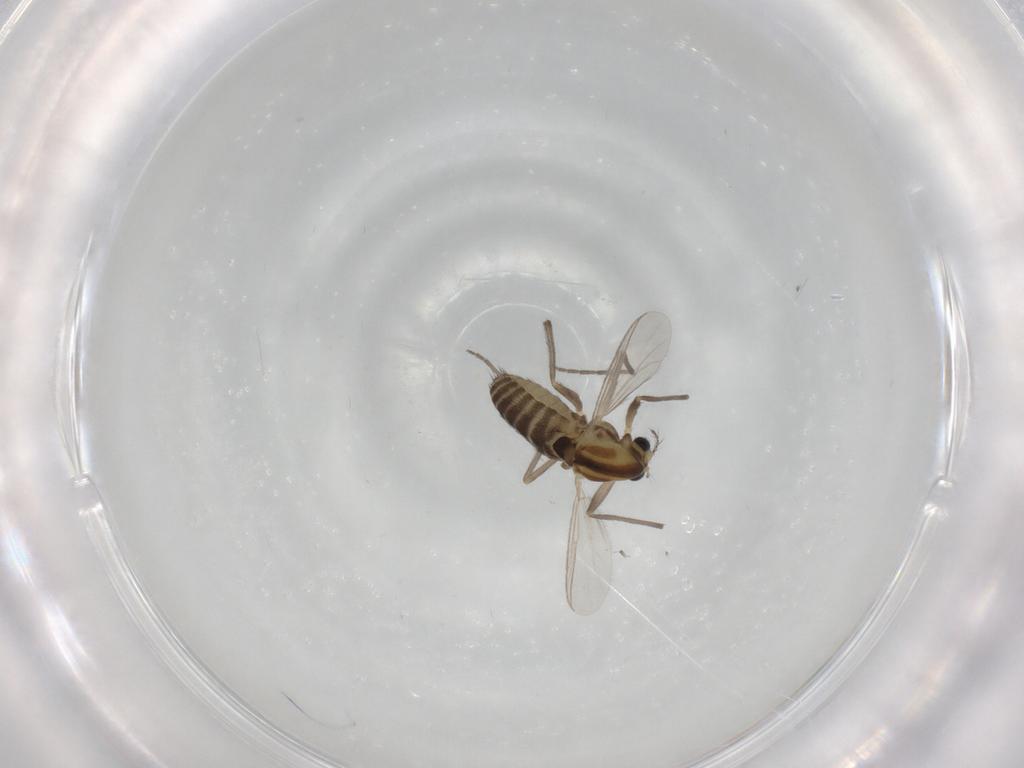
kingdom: Animalia
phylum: Arthropoda
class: Insecta
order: Diptera
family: Chironomidae
